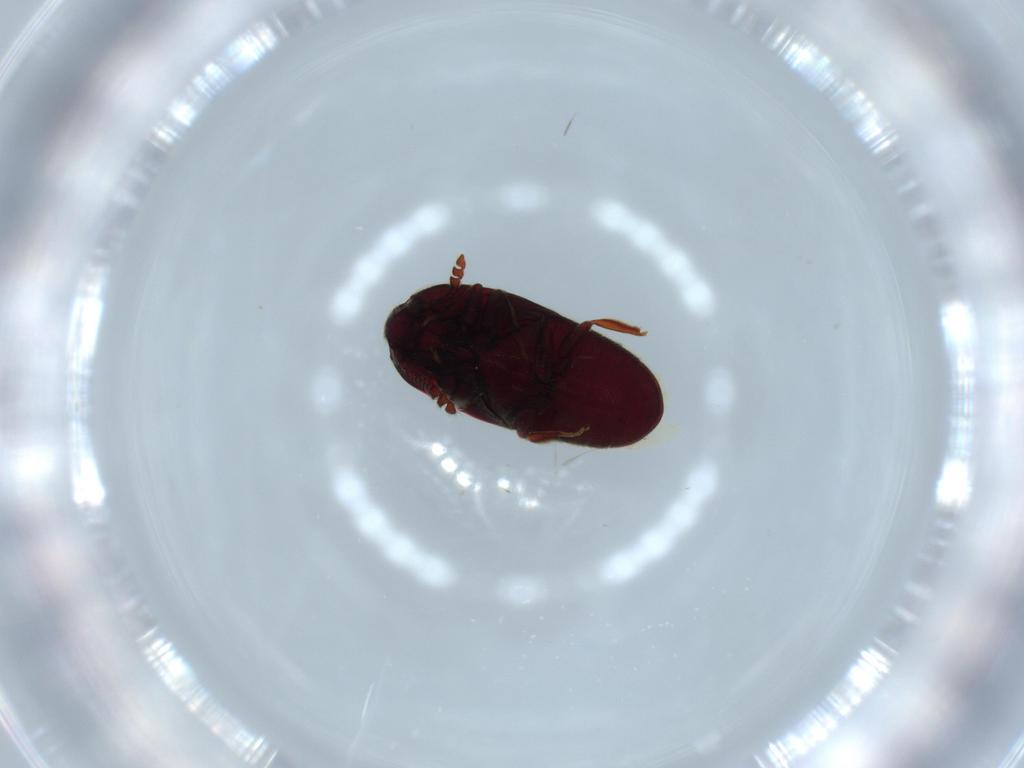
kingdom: Animalia
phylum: Arthropoda
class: Insecta
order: Coleoptera
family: Throscidae
